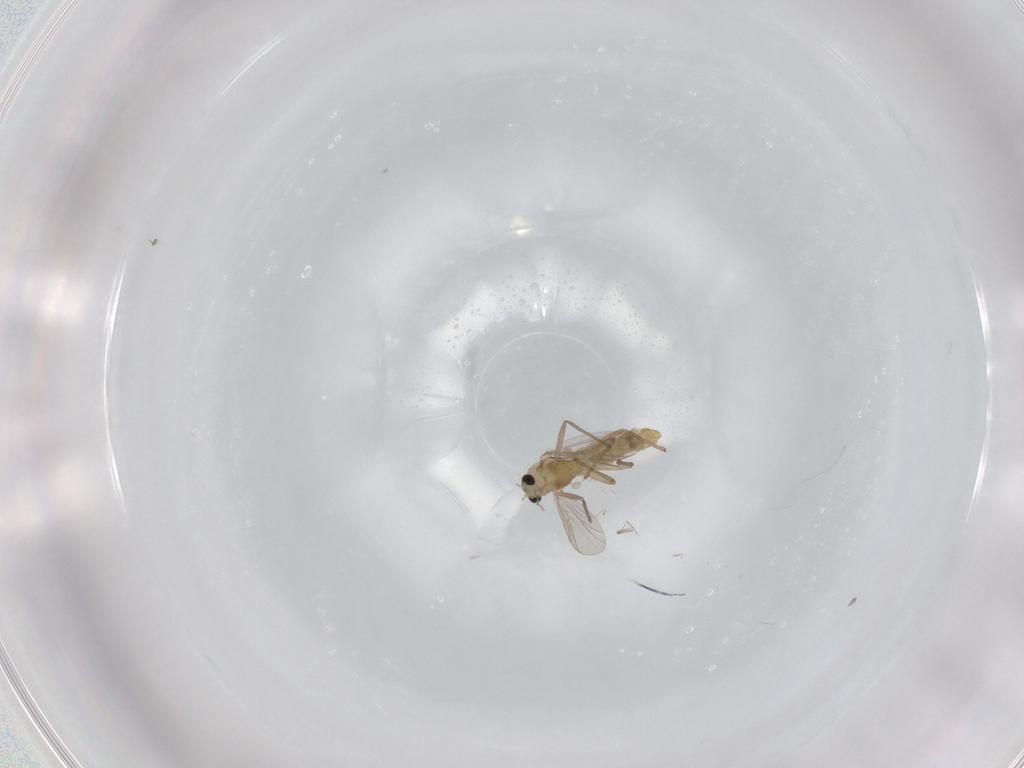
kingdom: Animalia
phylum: Arthropoda
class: Insecta
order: Diptera
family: Chironomidae
